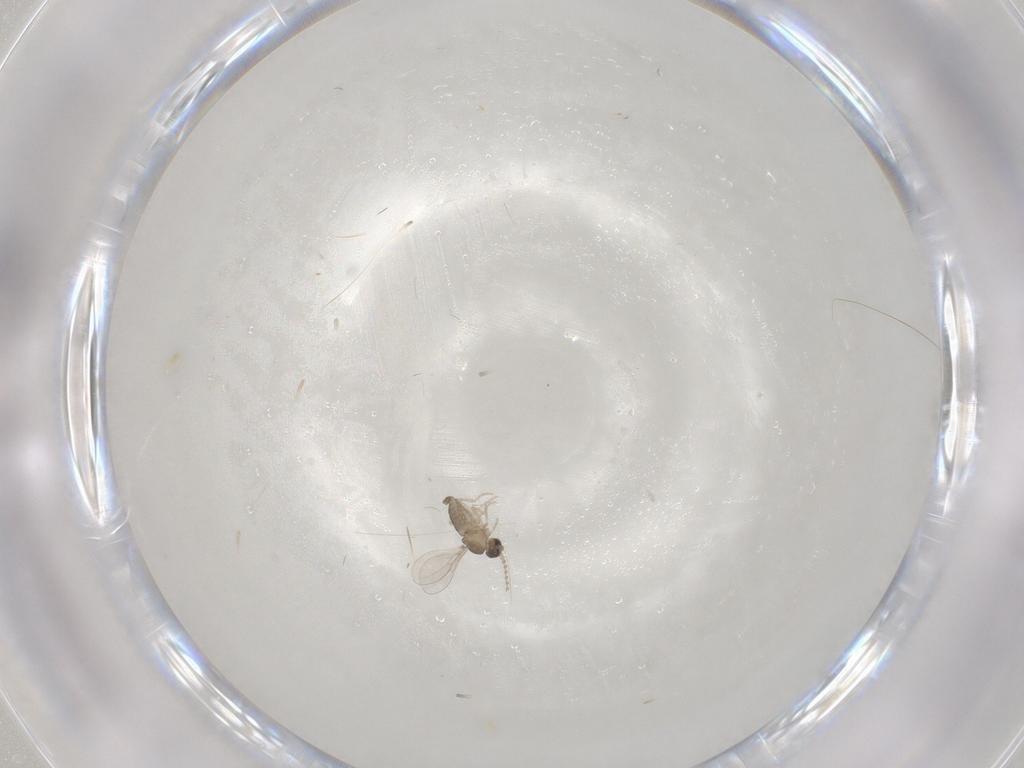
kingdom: Animalia
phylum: Arthropoda
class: Insecta
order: Diptera
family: Cecidomyiidae
